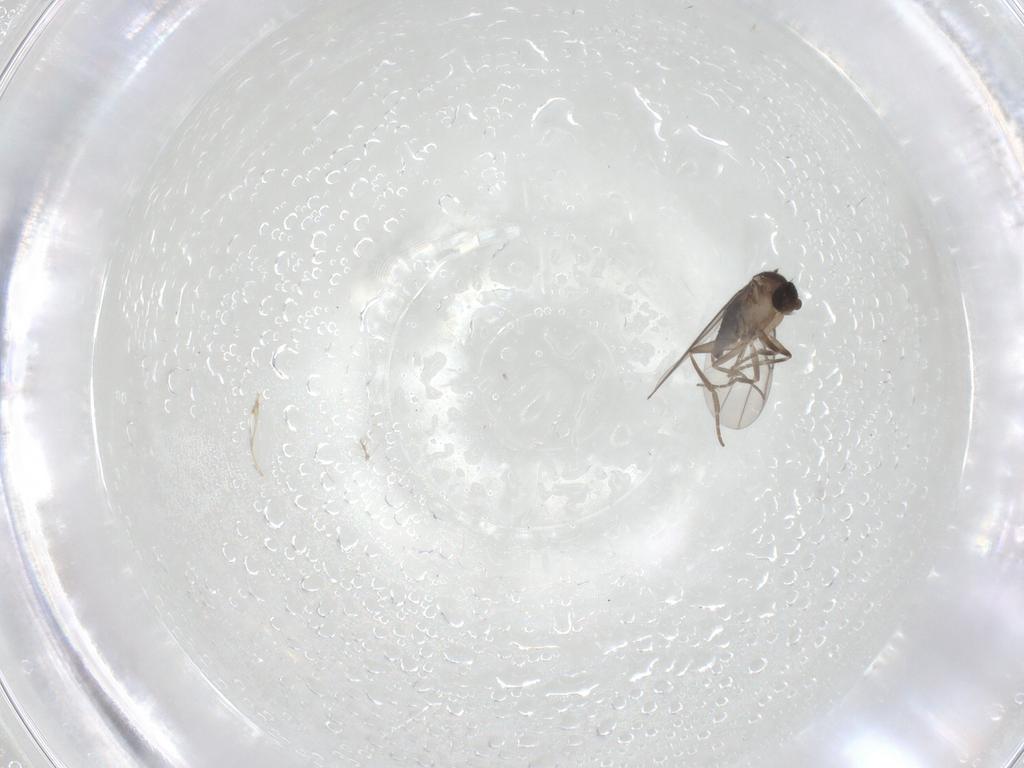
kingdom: Animalia
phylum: Arthropoda
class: Insecta
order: Diptera
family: Phoridae
